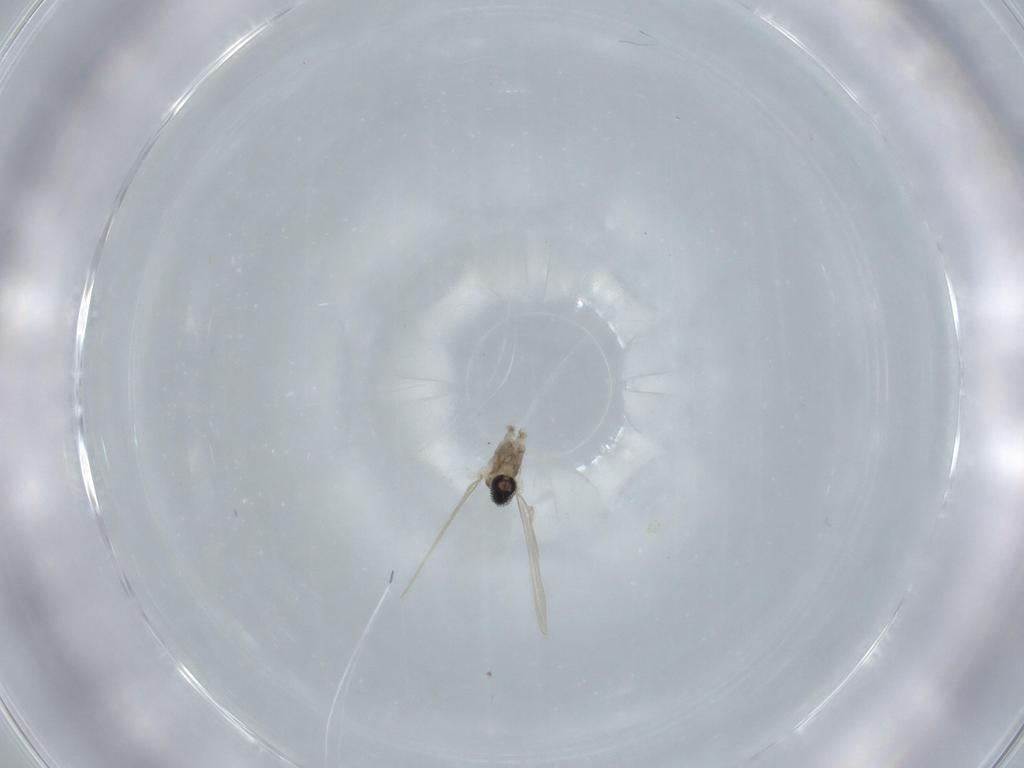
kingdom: Animalia
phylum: Arthropoda
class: Insecta
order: Diptera
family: Cecidomyiidae
